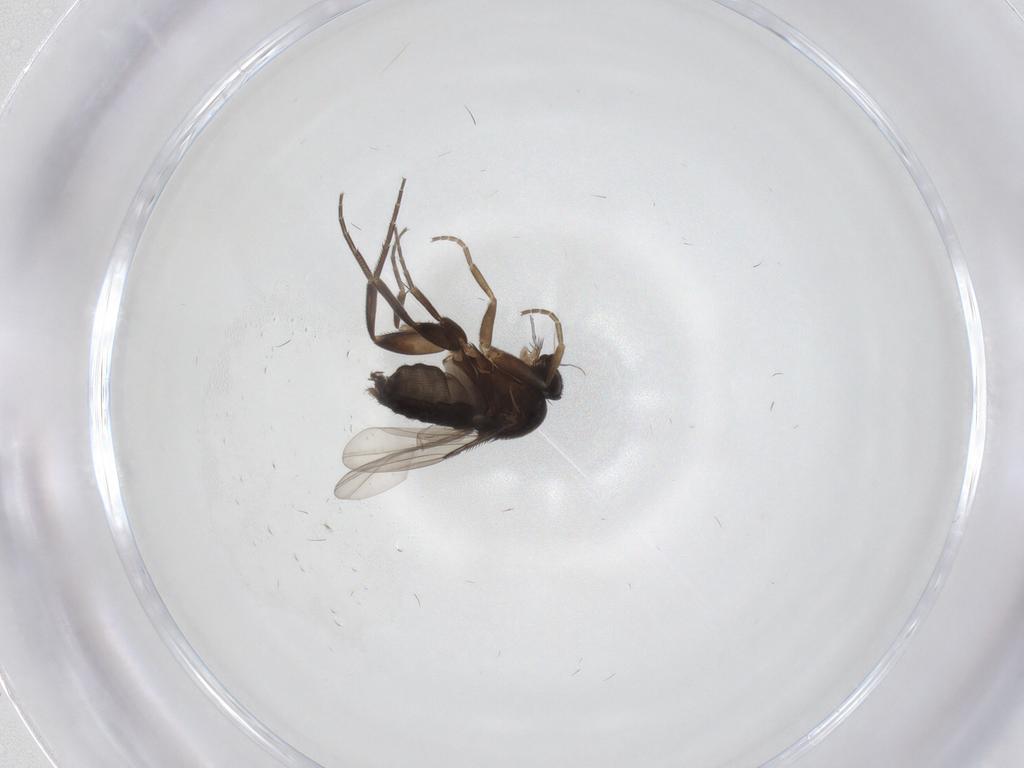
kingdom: Animalia
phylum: Arthropoda
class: Insecta
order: Diptera
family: Phoridae
